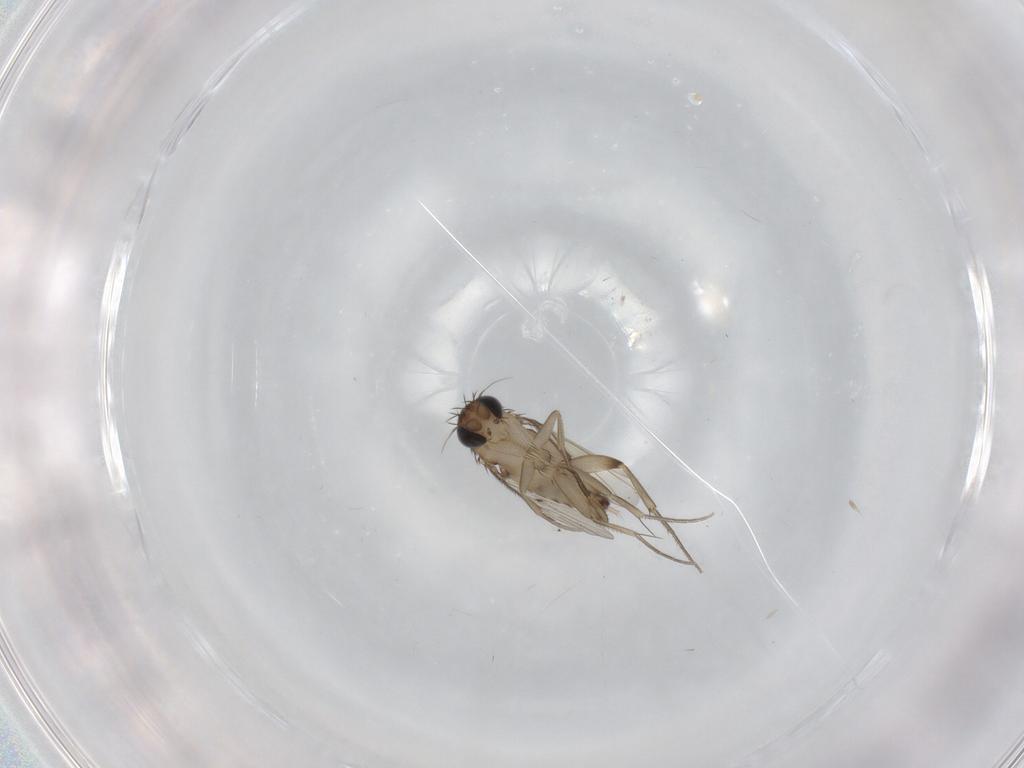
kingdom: Animalia
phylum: Arthropoda
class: Insecta
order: Diptera
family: Phoridae
